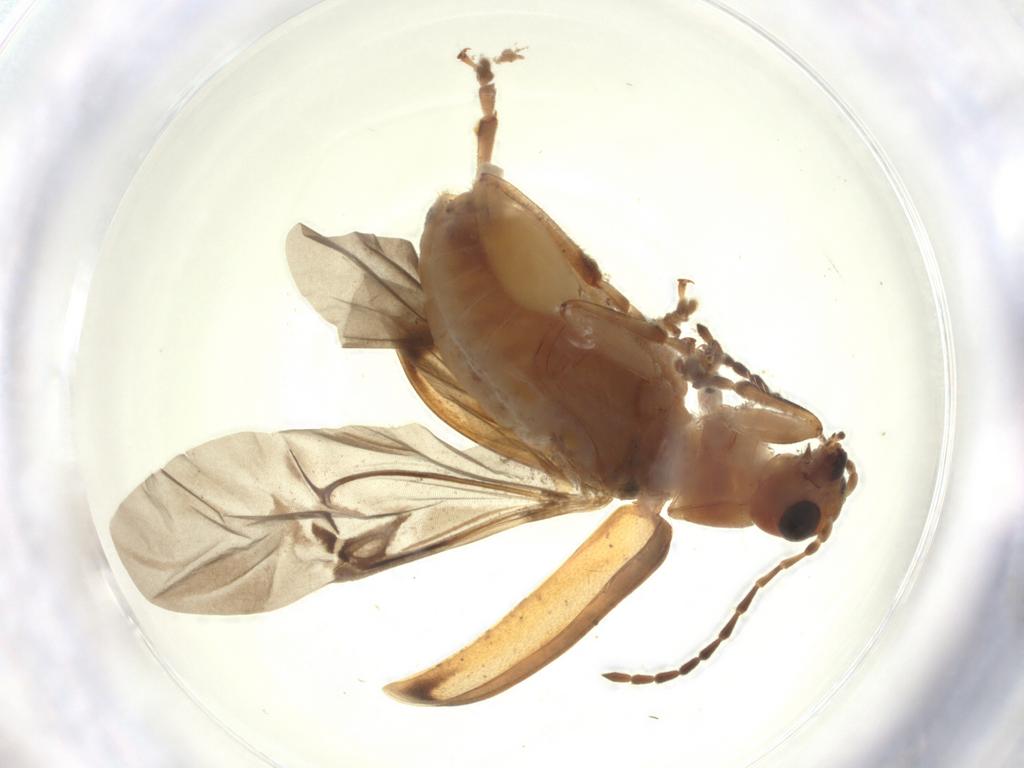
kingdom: Animalia
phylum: Arthropoda
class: Insecta
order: Coleoptera
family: Chrysomelidae
